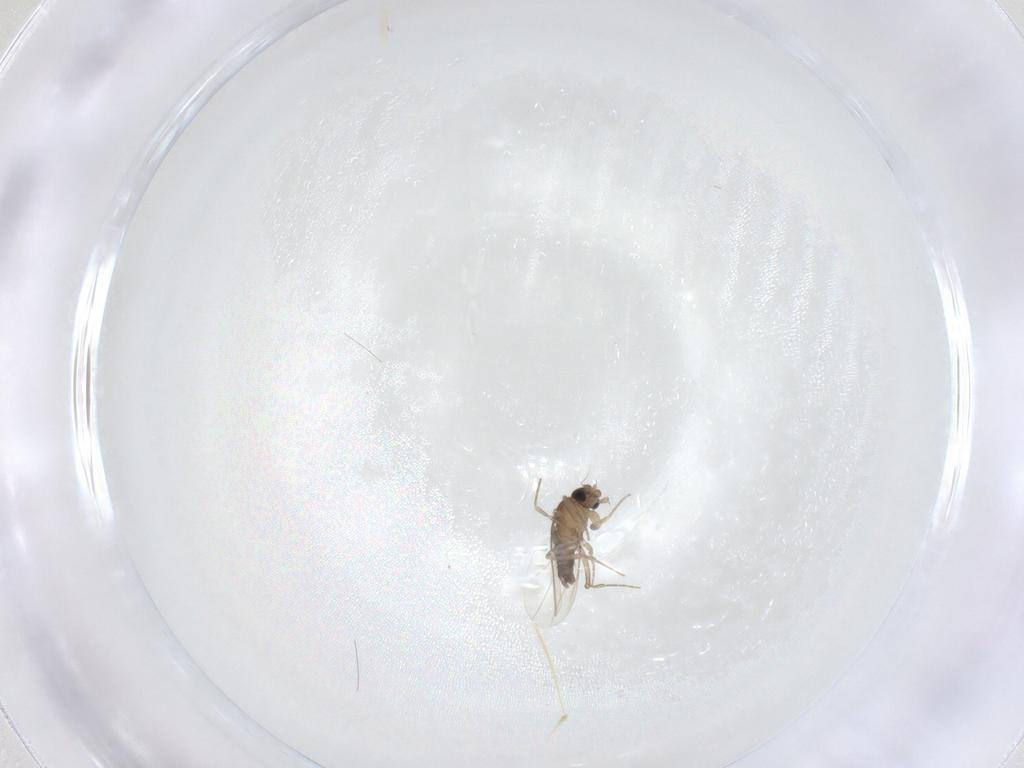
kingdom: Animalia
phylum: Arthropoda
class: Insecta
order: Diptera
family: Phoridae
